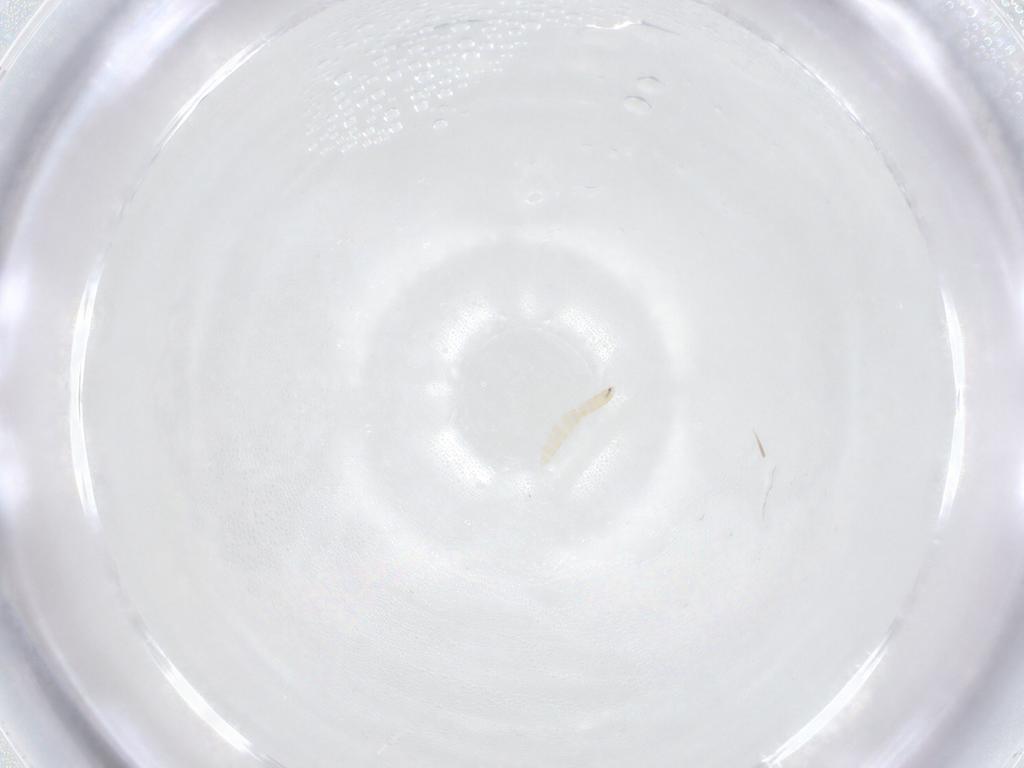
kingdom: Animalia
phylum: Arthropoda
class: Insecta
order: Diptera
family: Tachinidae
